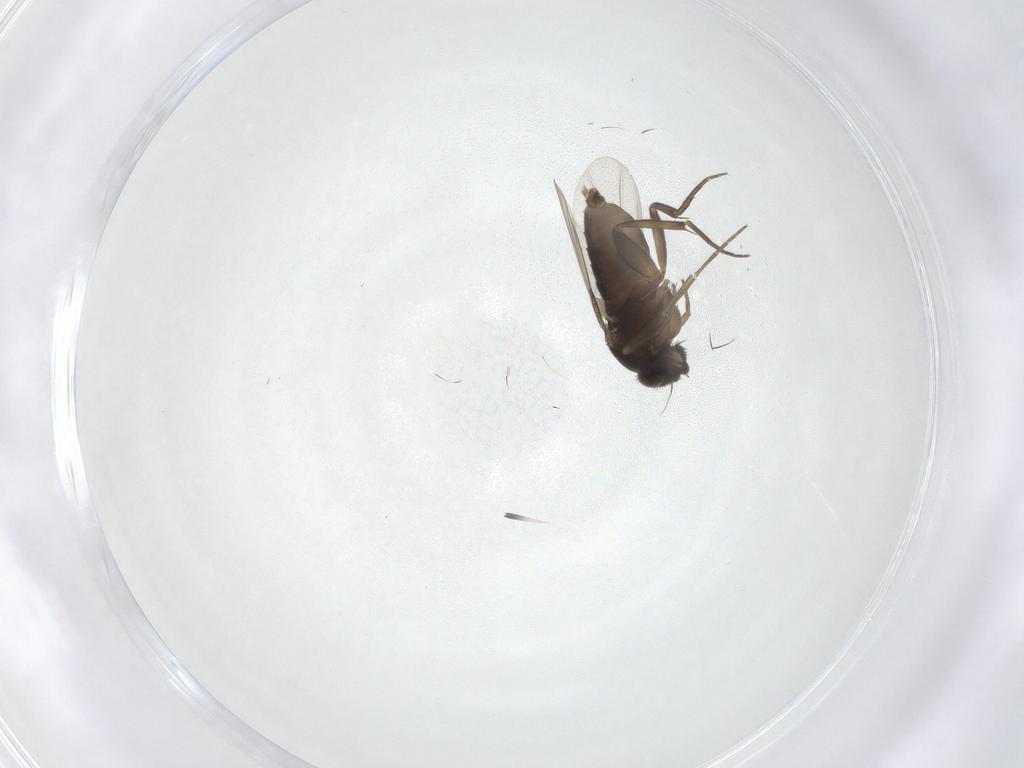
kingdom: Animalia
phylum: Arthropoda
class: Insecta
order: Diptera
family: Phoridae
